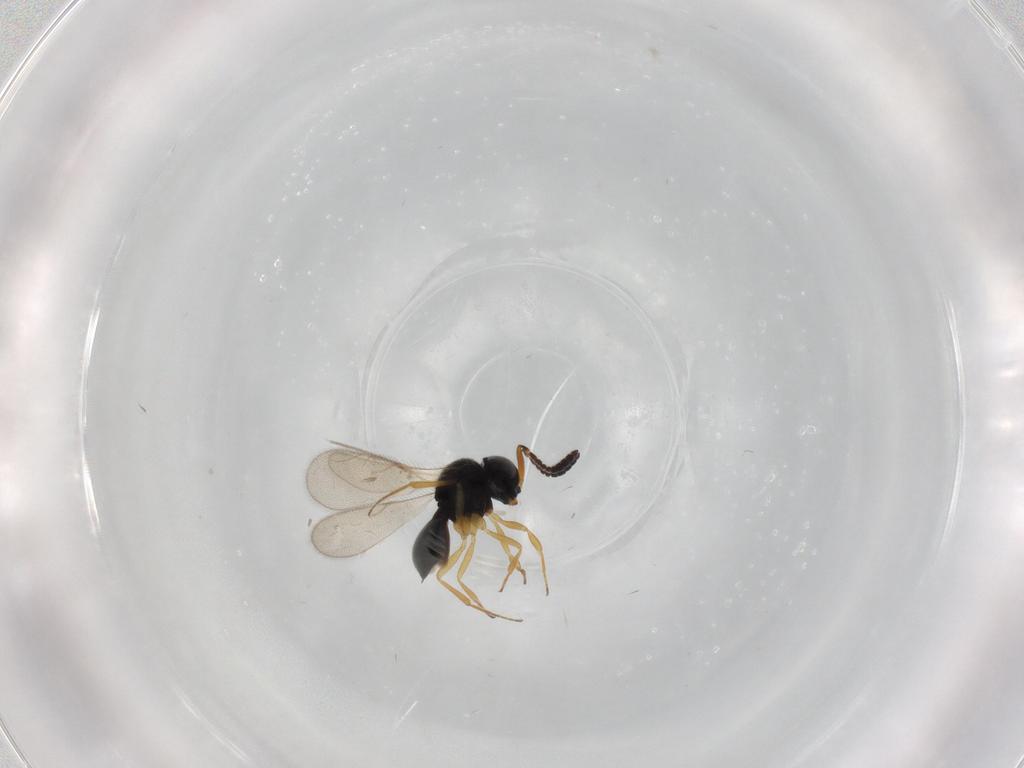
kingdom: Animalia
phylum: Arthropoda
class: Insecta
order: Hymenoptera
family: Scelionidae
